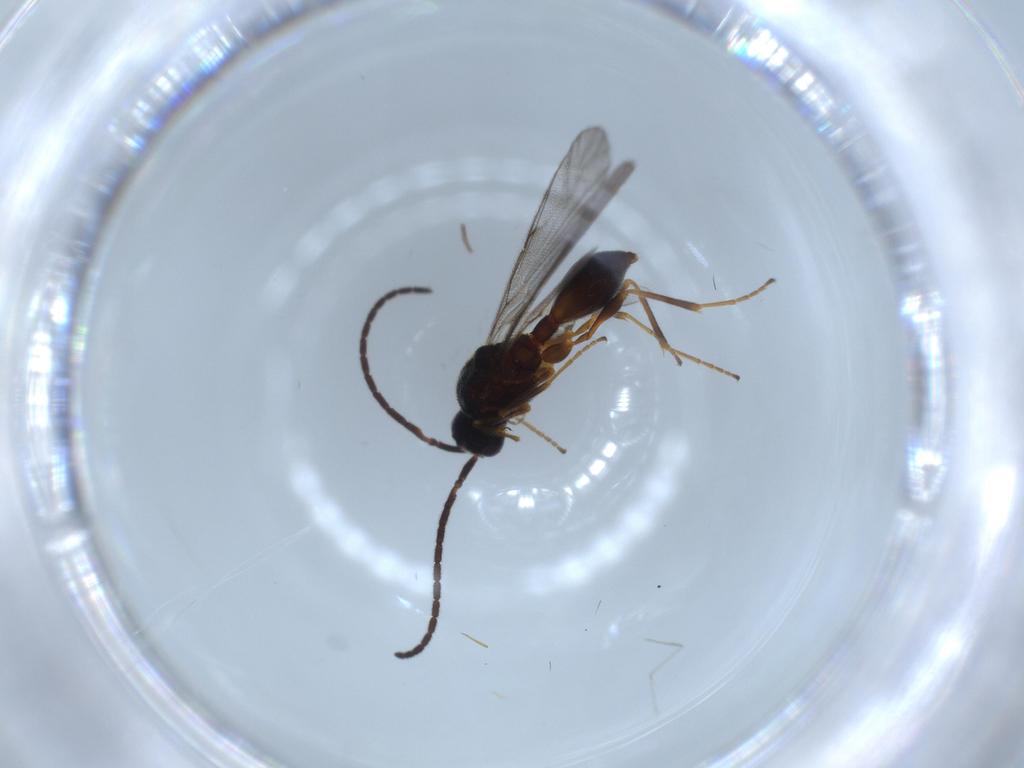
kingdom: Animalia
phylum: Arthropoda
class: Insecta
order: Hymenoptera
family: Diapriidae
